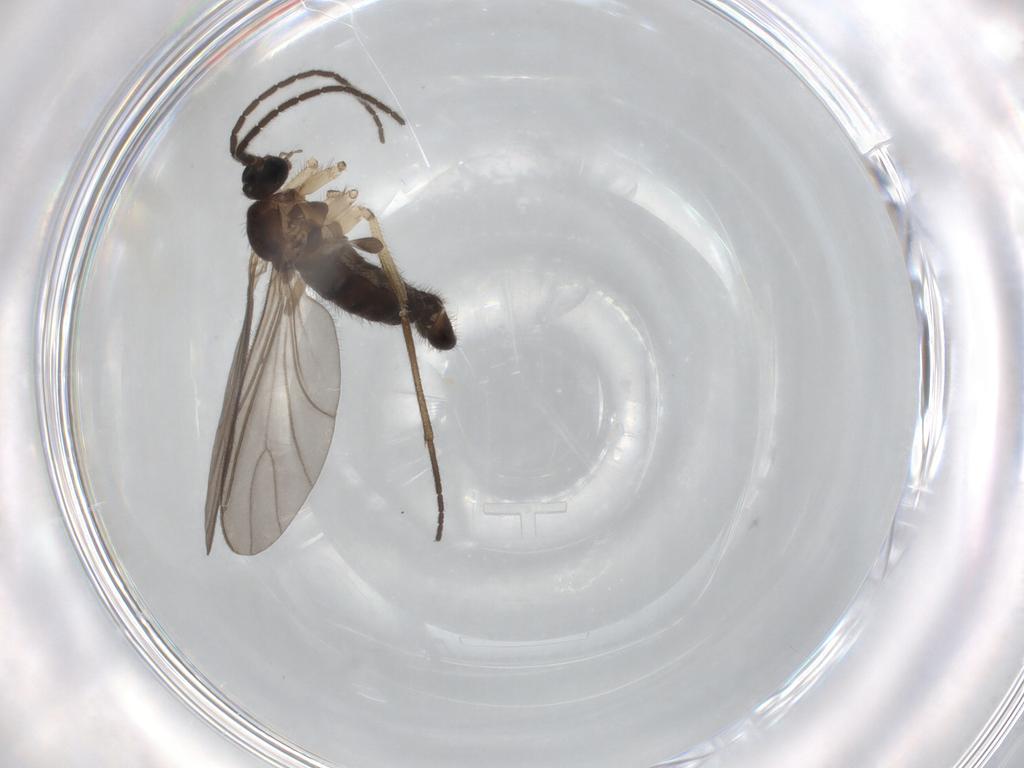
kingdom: Animalia
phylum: Arthropoda
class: Insecta
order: Diptera
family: Sciaridae
